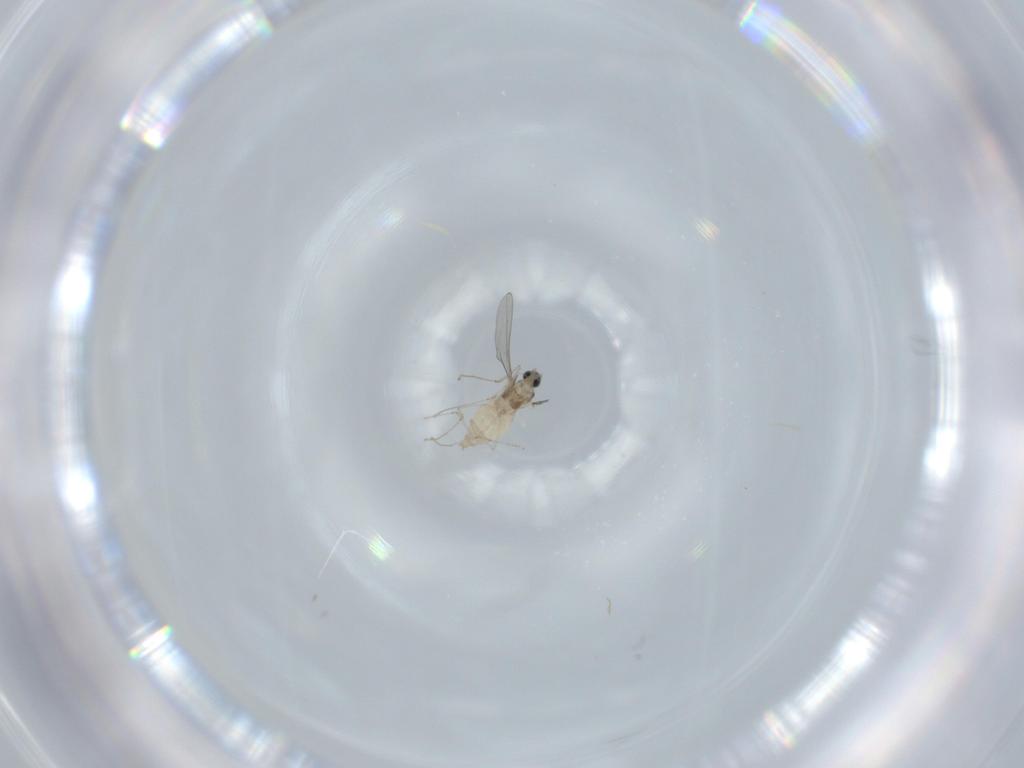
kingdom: Animalia
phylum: Arthropoda
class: Insecta
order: Diptera
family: Cecidomyiidae
